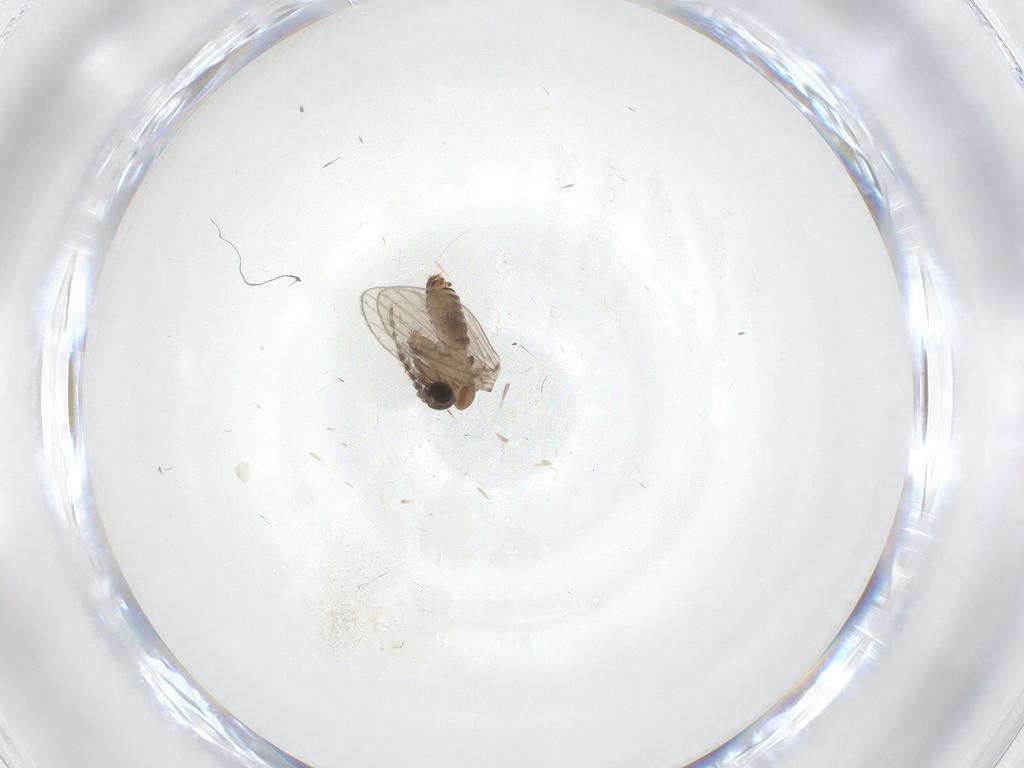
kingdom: Animalia
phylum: Arthropoda
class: Insecta
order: Diptera
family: Psychodidae
